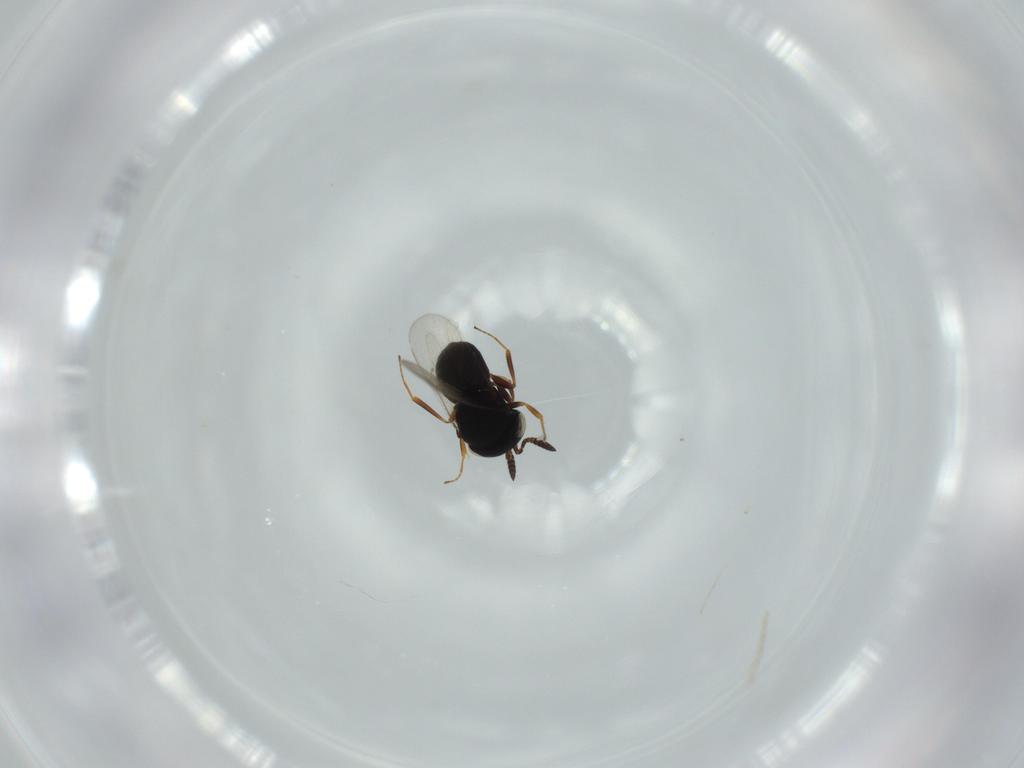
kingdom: Animalia
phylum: Arthropoda
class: Insecta
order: Hymenoptera
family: Scelionidae
